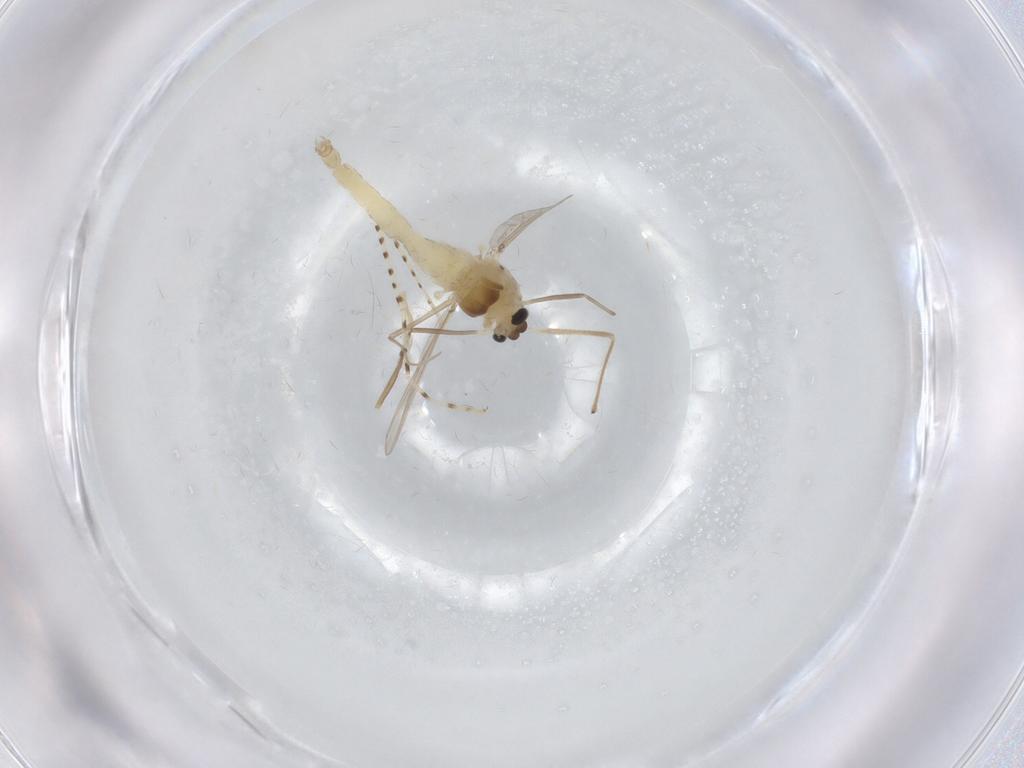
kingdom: Animalia
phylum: Arthropoda
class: Insecta
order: Diptera
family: Chironomidae
